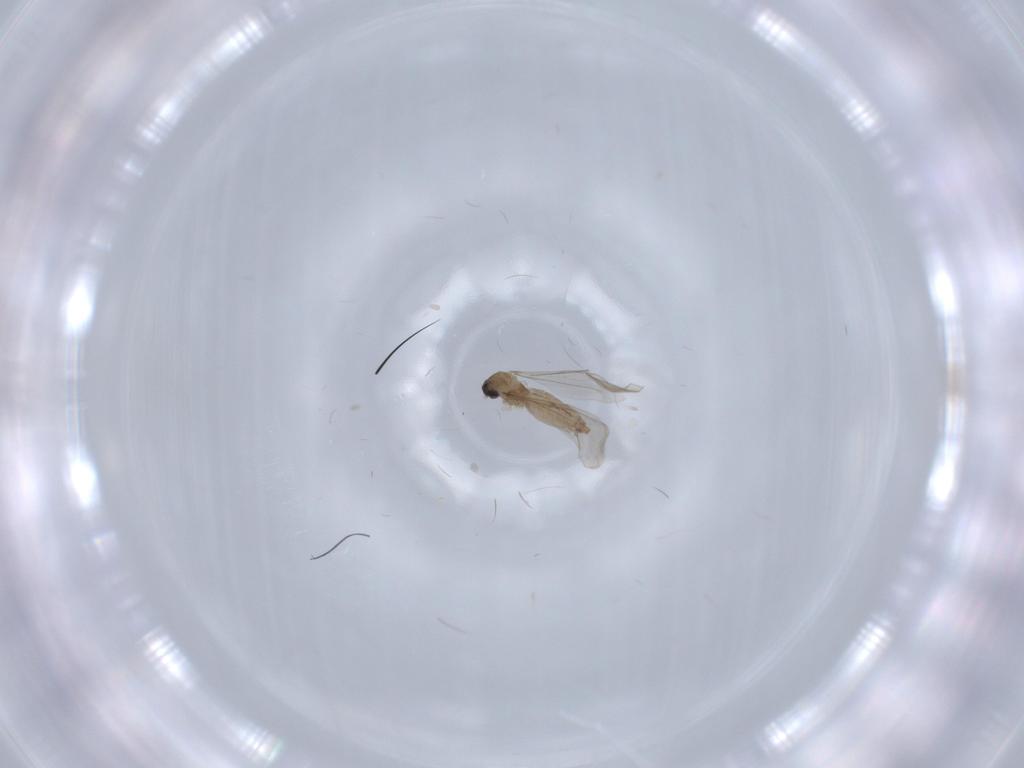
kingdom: Animalia
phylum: Arthropoda
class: Insecta
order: Diptera
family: Cecidomyiidae
